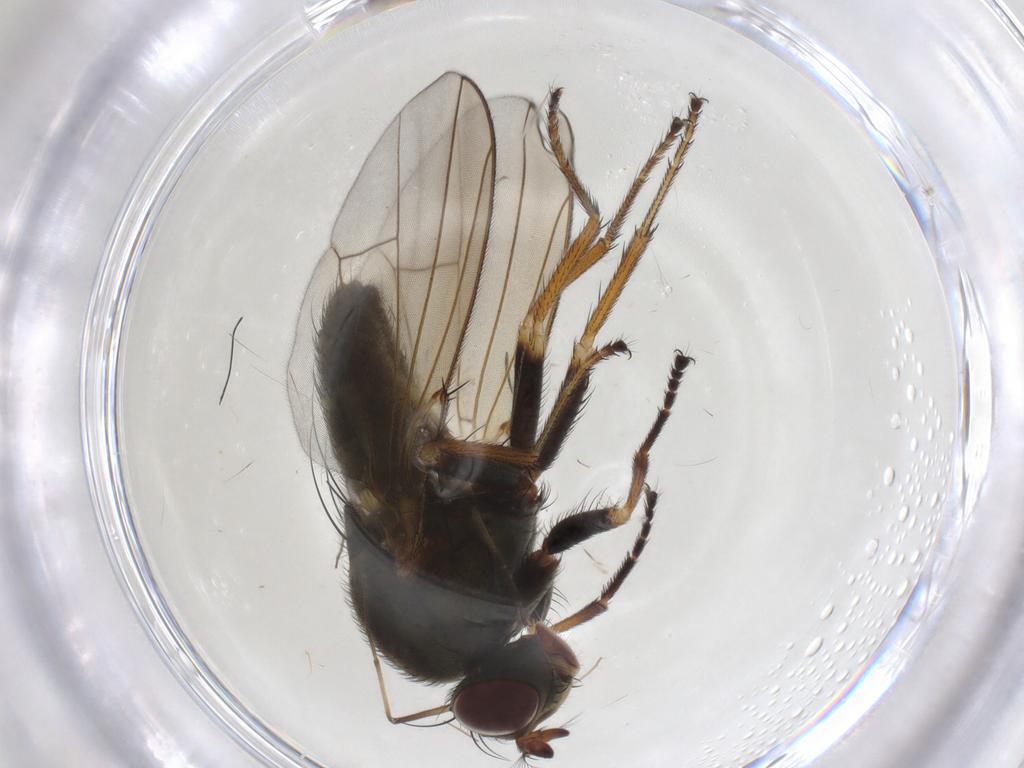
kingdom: Animalia
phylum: Arthropoda
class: Insecta
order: Diptera
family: Ephydridae
